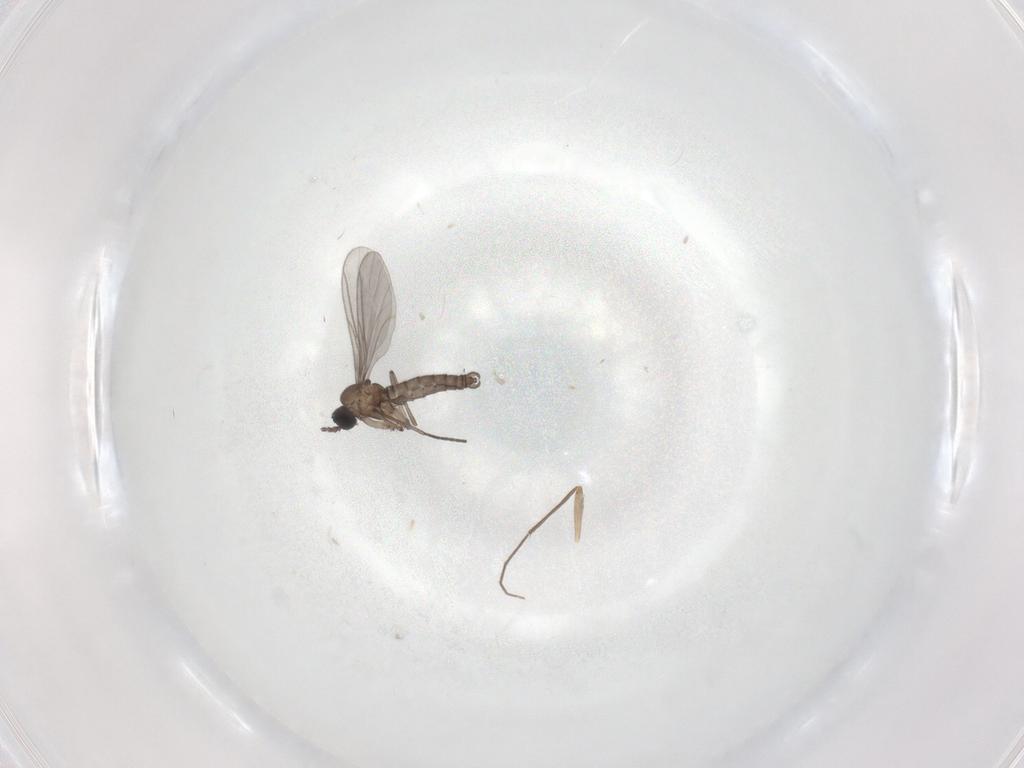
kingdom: Animalia
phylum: Arthropoda
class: Insecta
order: Diptera
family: Chironomidae
